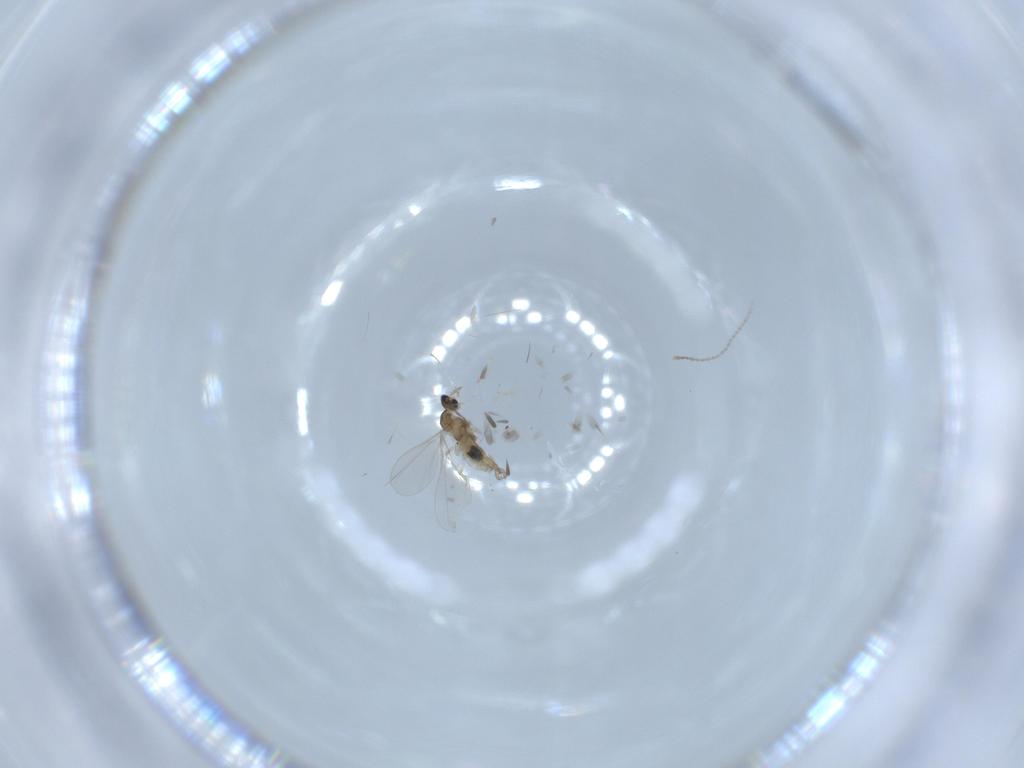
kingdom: Animalia
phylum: Arthropoda
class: Insecta
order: Diptera
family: Cecidomyiidae
